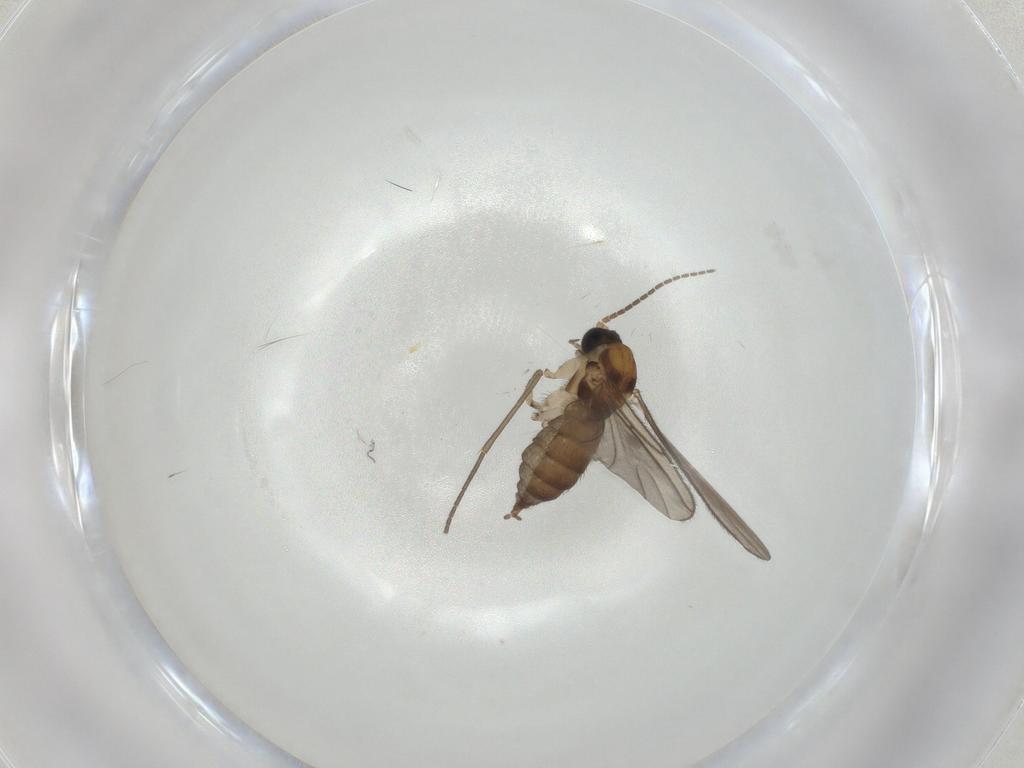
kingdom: Animalia
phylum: Arthropoda
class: Insecta
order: Diptera
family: Sciaridae
